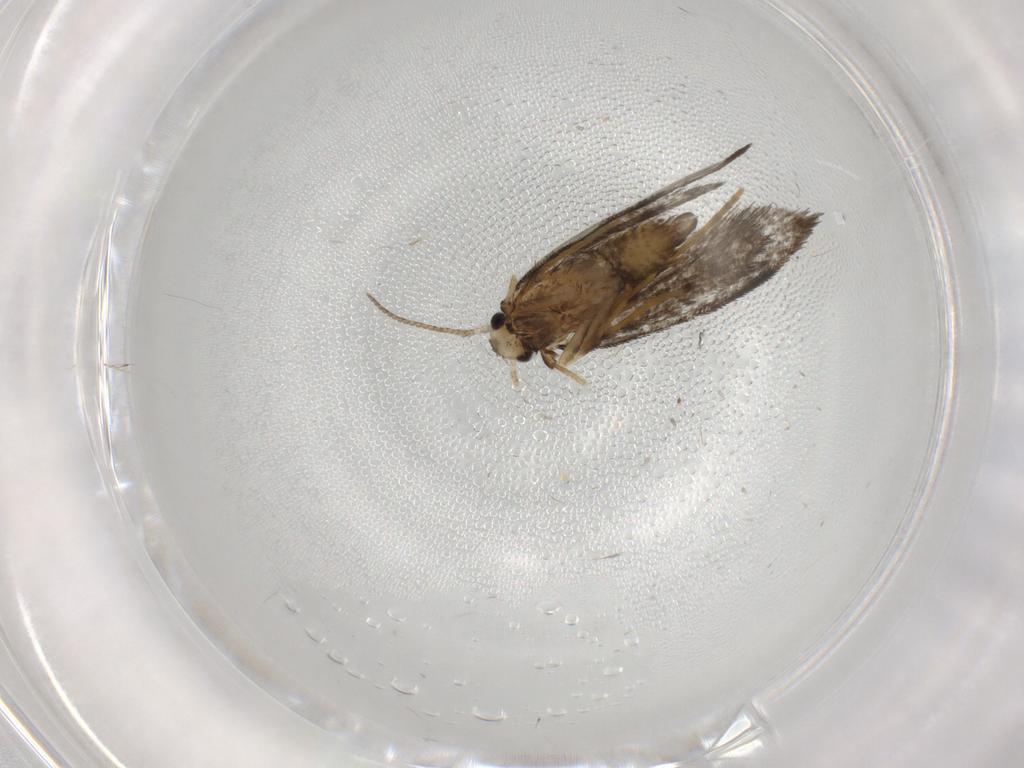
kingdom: Animalia
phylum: Arthropoda
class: Insecta
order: Lepidoptera
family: Psychidae
